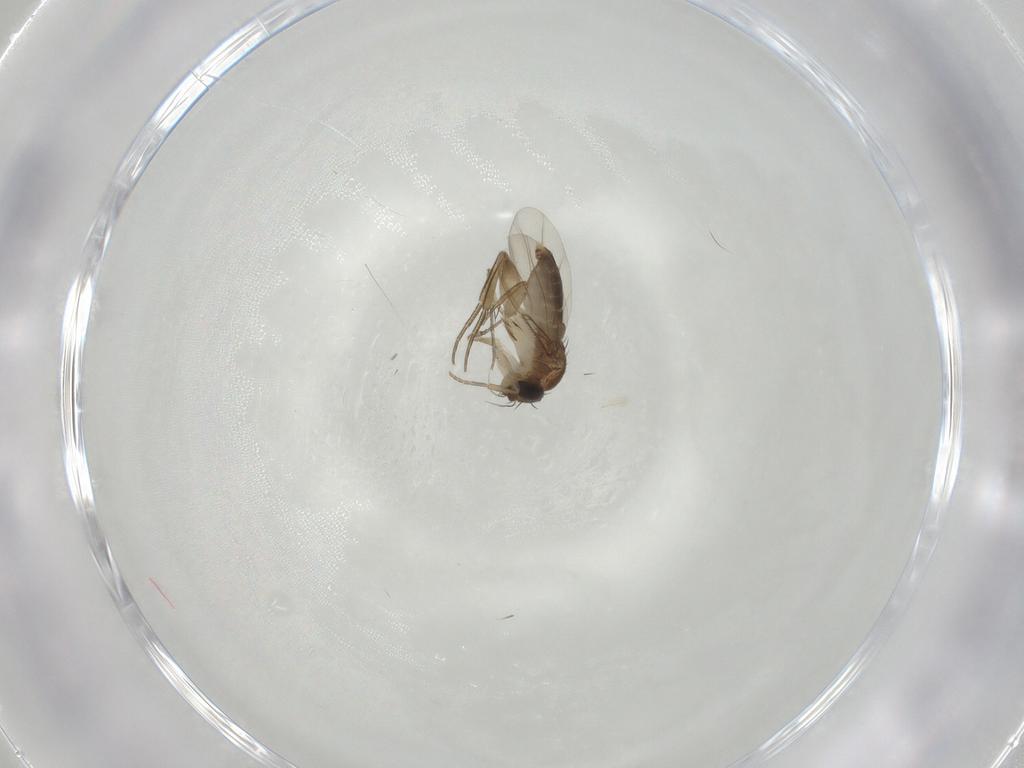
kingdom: Animalia
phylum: Arthropoda
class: Insecta
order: Diptera
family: Phoridae
